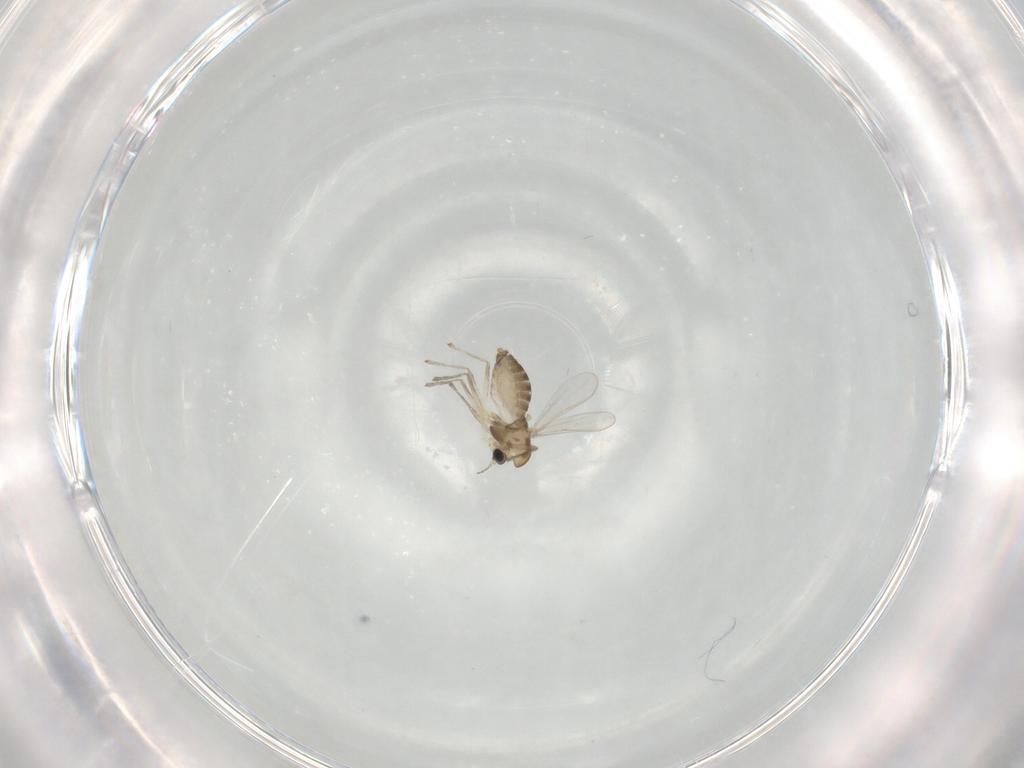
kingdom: Animalia
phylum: Arthropoda
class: Insecta
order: Diptera
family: Chironomidae
